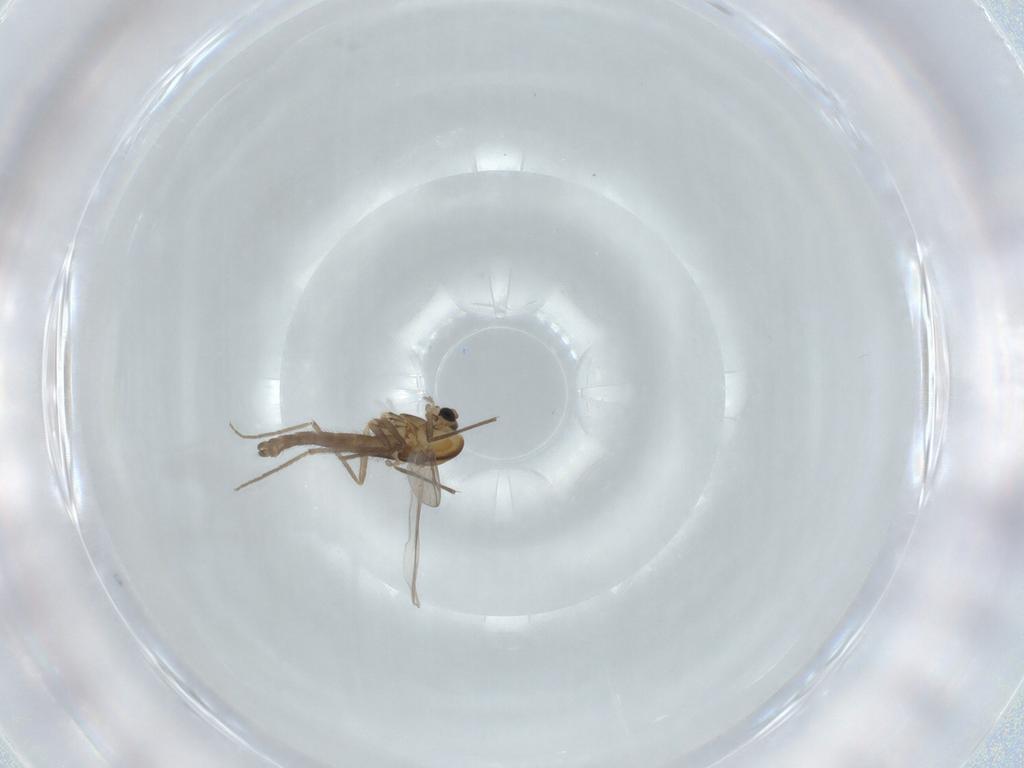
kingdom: Animalia
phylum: Arthropoda
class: Insecta
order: Diptera
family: Chironomidae
